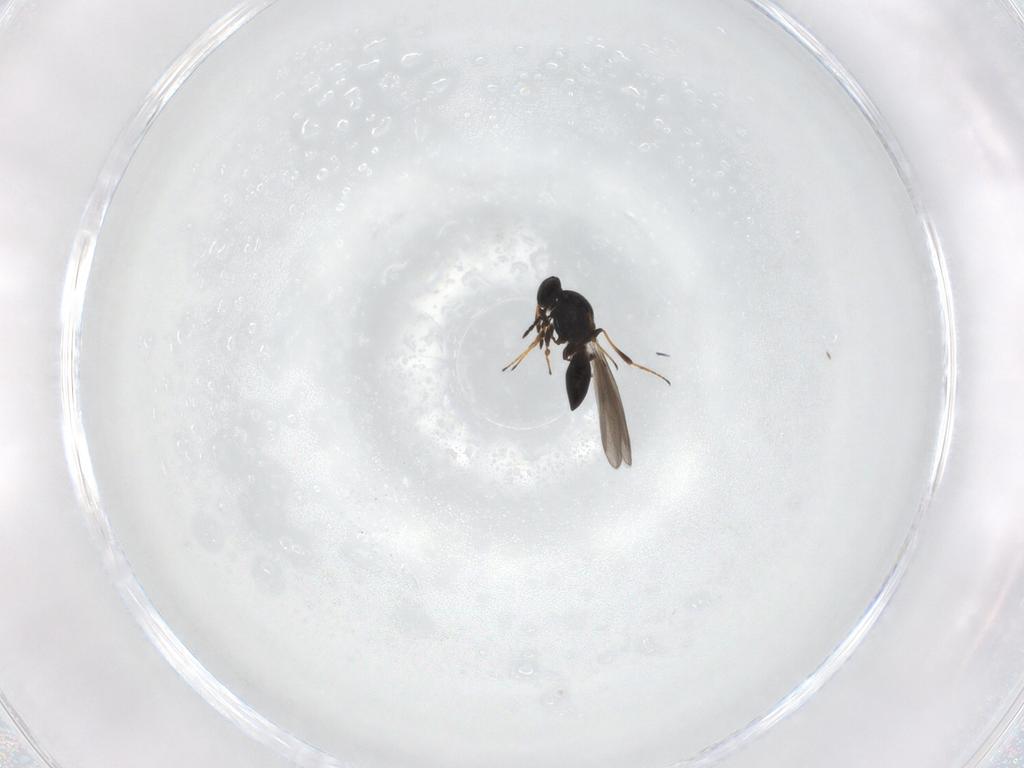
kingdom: Animalia
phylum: Arthropoda
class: Insecta
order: Hymenoptera
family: Platygastridae
